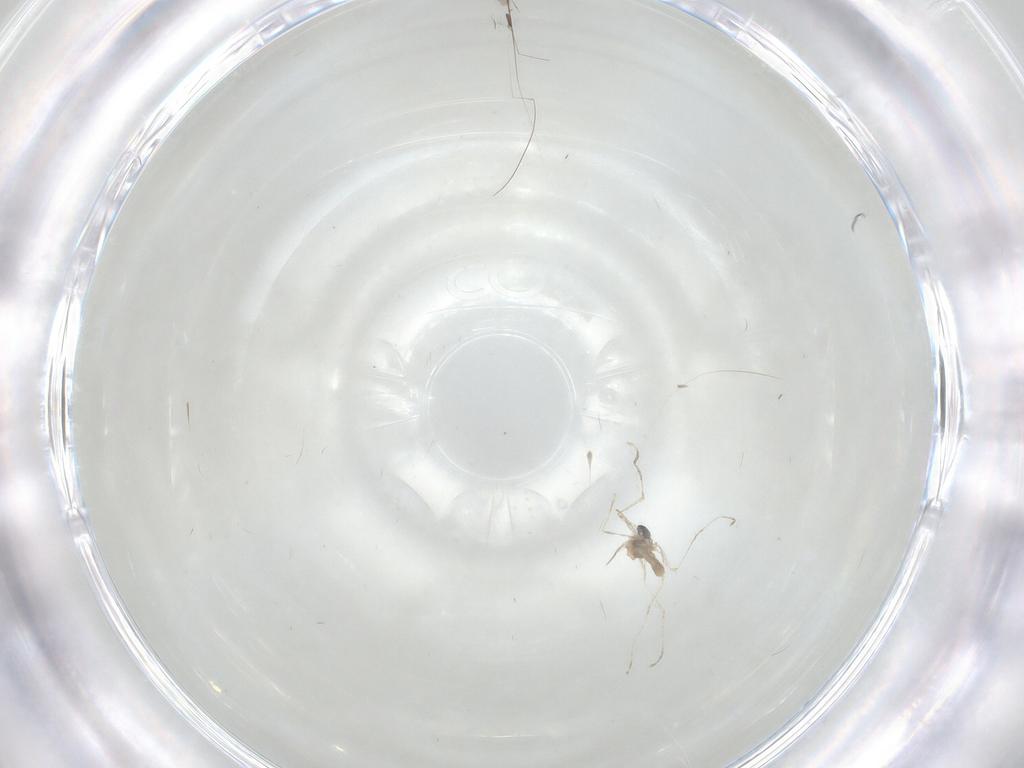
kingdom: Animalia
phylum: Arthropoda
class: Insecta
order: Diptera
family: Cecidomyiidae
